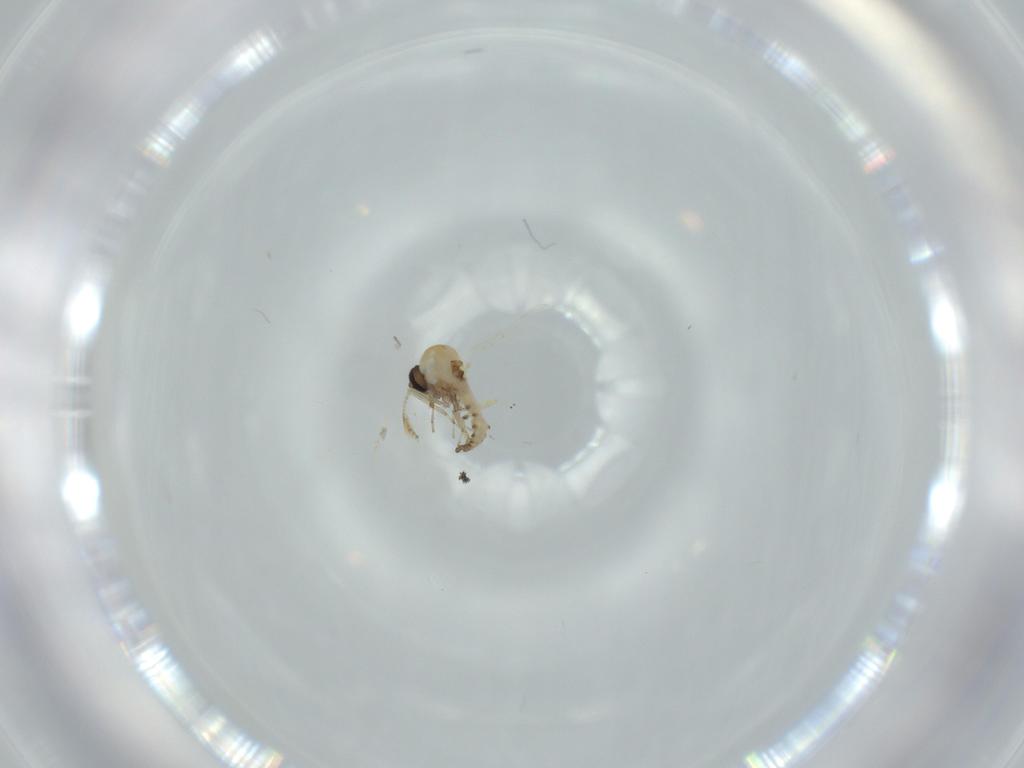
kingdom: Animalia
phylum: Arthropoda
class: Insecta
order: Diptera
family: Ceratopogonidae
